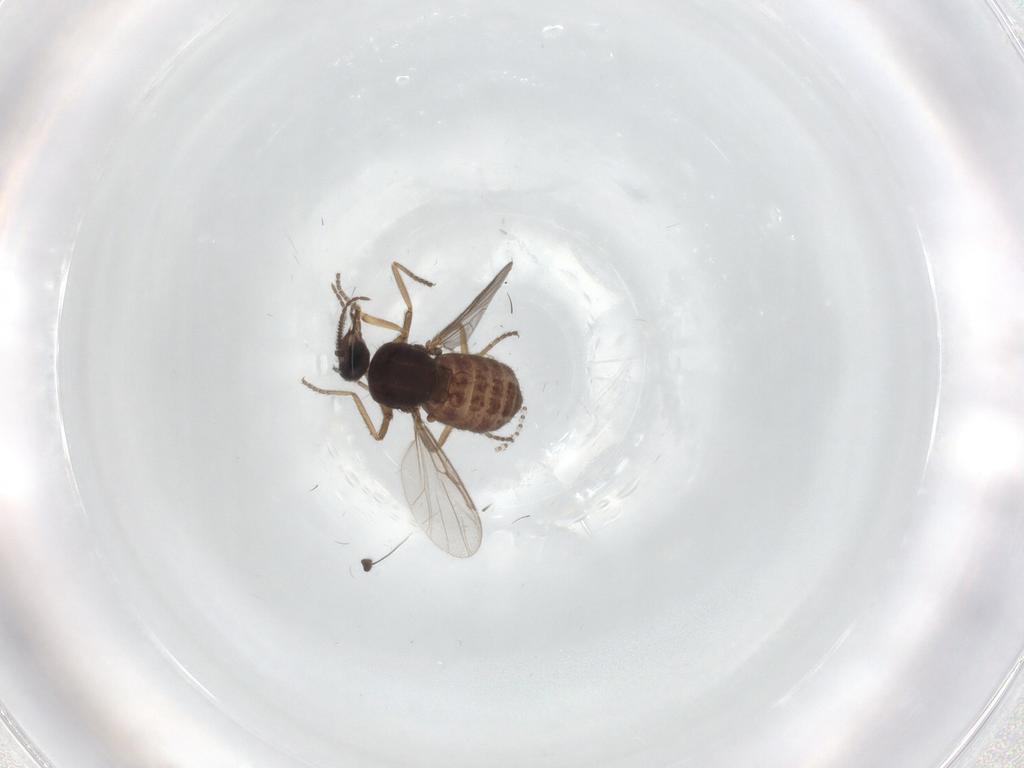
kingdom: Animalia
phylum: Arthropoda
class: Insecta
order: Diptera
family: Ceratopogonidae
